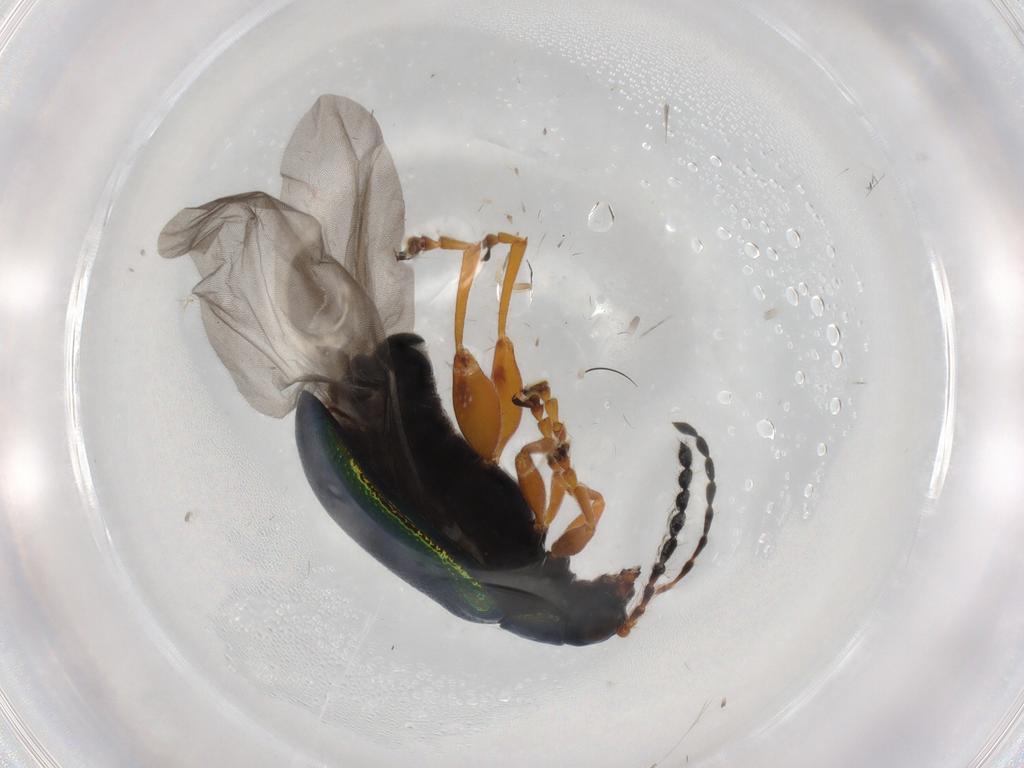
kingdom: Animalia
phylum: Arthropoda
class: Insecta
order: Coleoptera
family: Chrysomelidae
